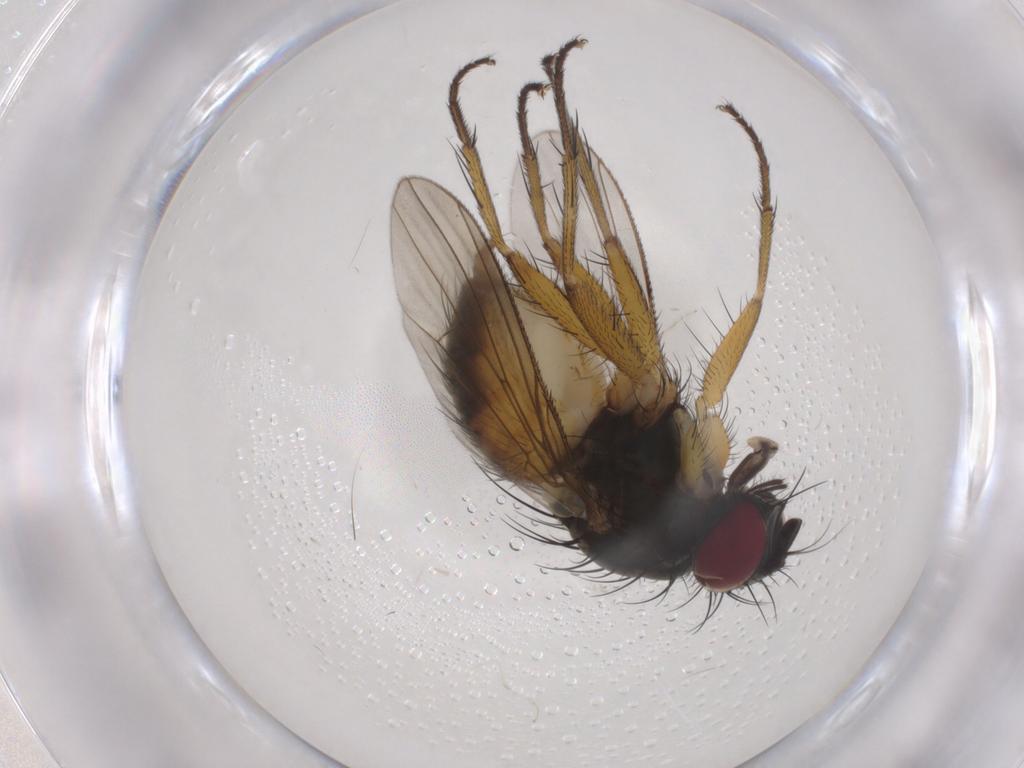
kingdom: Animalia
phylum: Arthropoda
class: Insecta
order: Diptera
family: Muscidae
